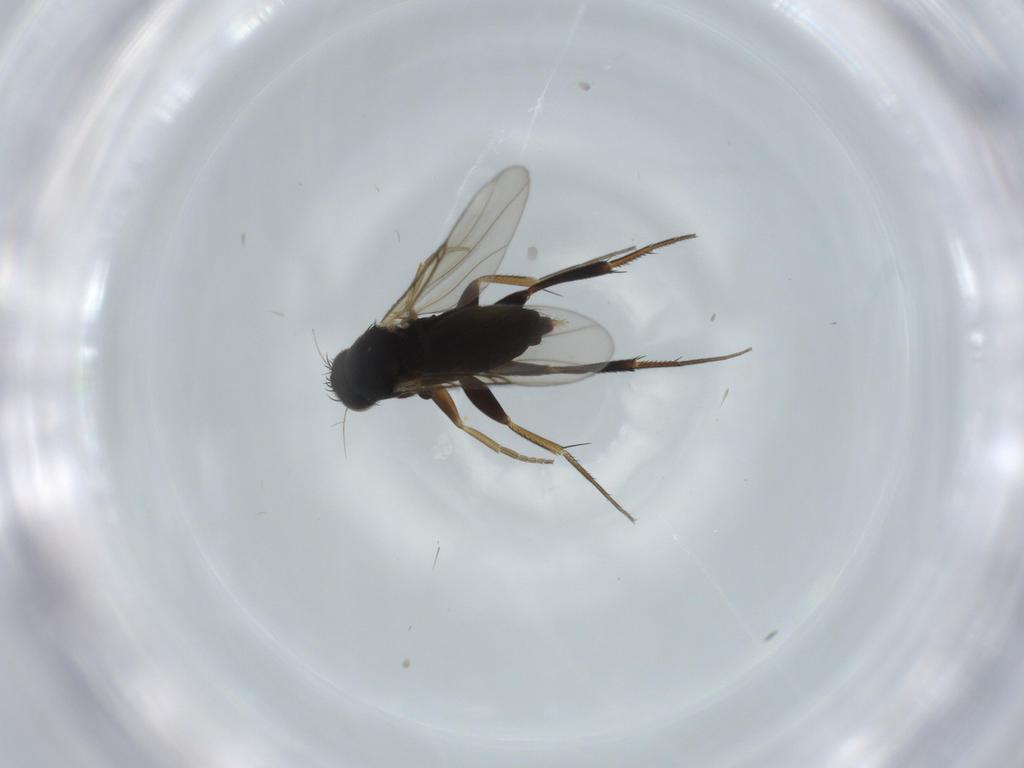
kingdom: Animalia
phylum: Arthropoda
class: Insecta
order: Diptera
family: Phoridae
